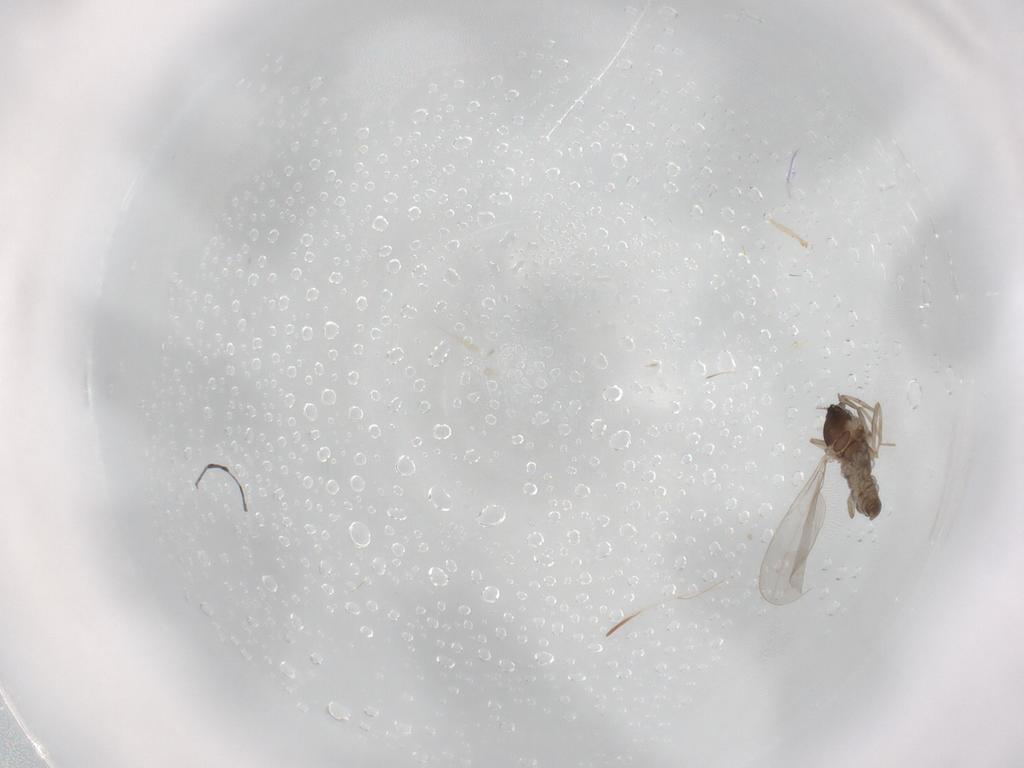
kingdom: Animalia
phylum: Arthropoda
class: Insecta
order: Diptera
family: Cecidomyiidae
